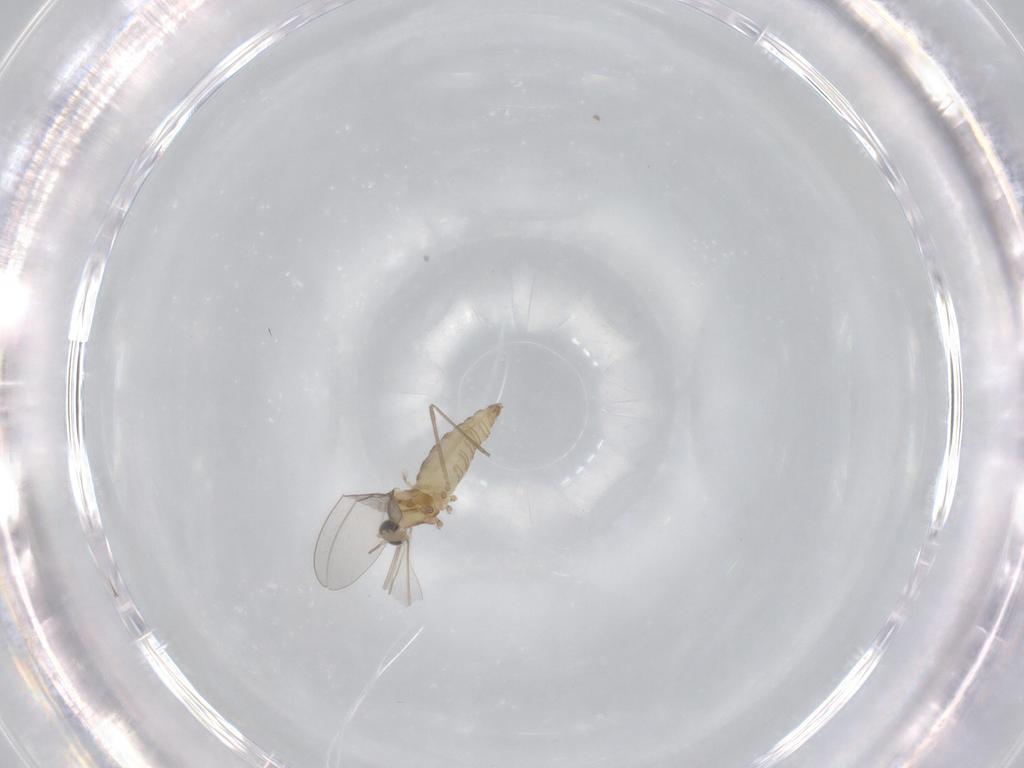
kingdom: Animalia
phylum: Arthropoda
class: Insecta
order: Diptera
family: Cecidomyiidae
